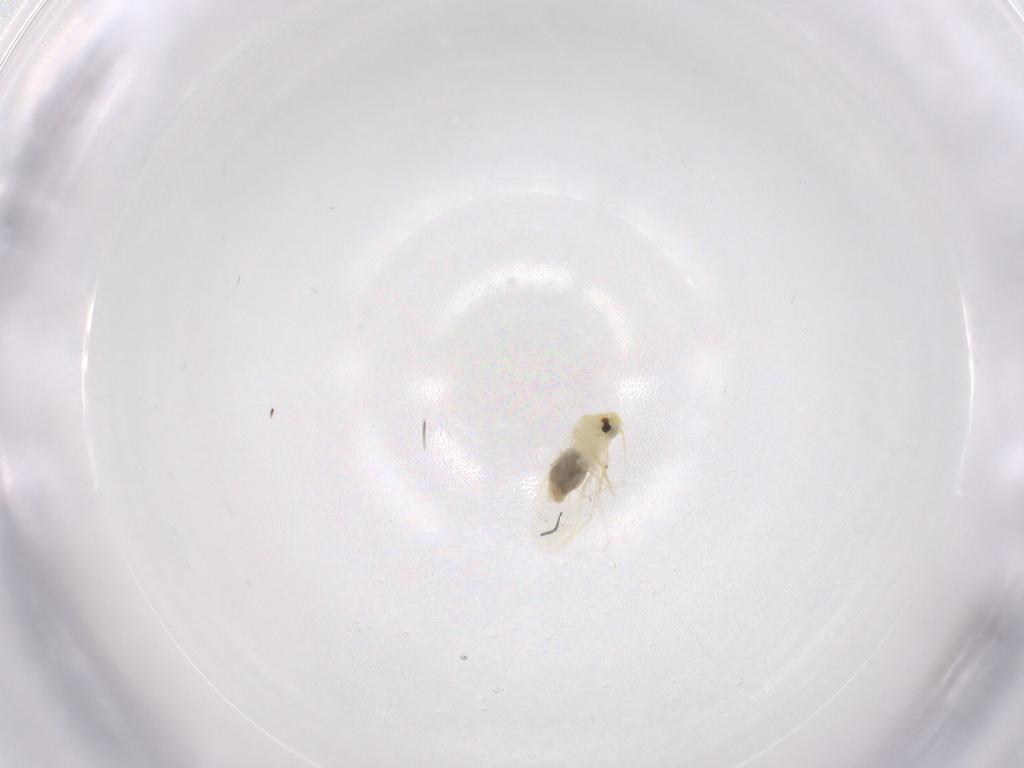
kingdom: Animalia
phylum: Arthropoda
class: Insecta
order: Hemiptera
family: Aleyrodidae
